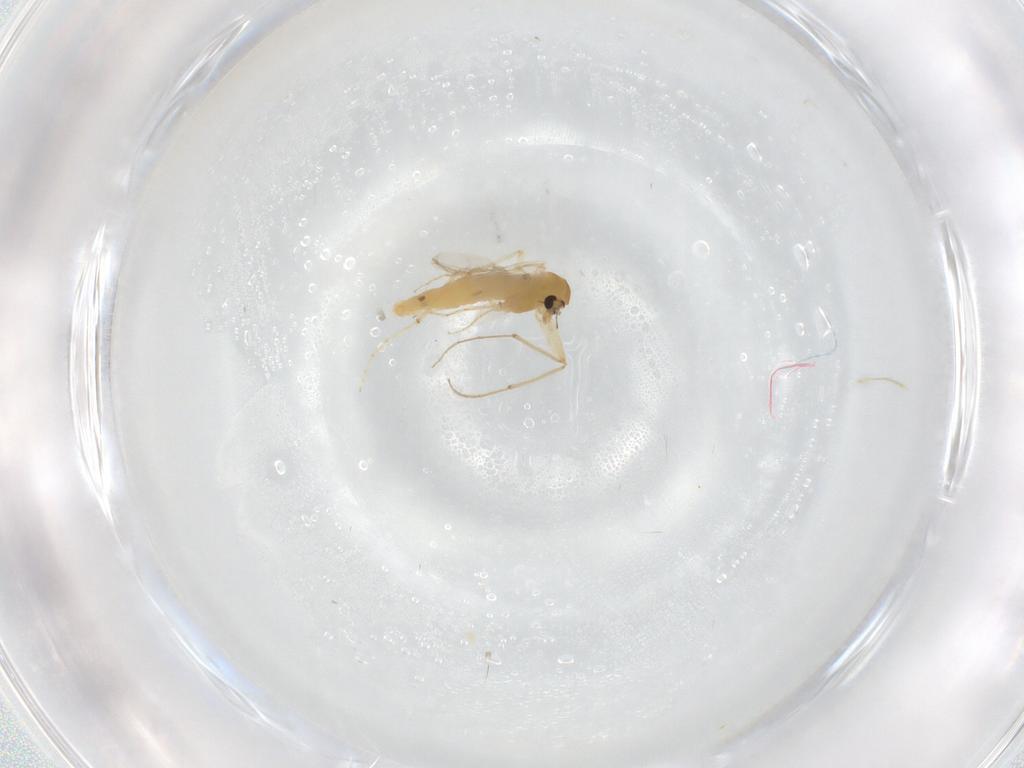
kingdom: Animalia
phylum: Arthropoda
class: Insecta
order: Diptera
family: Chironomidae
